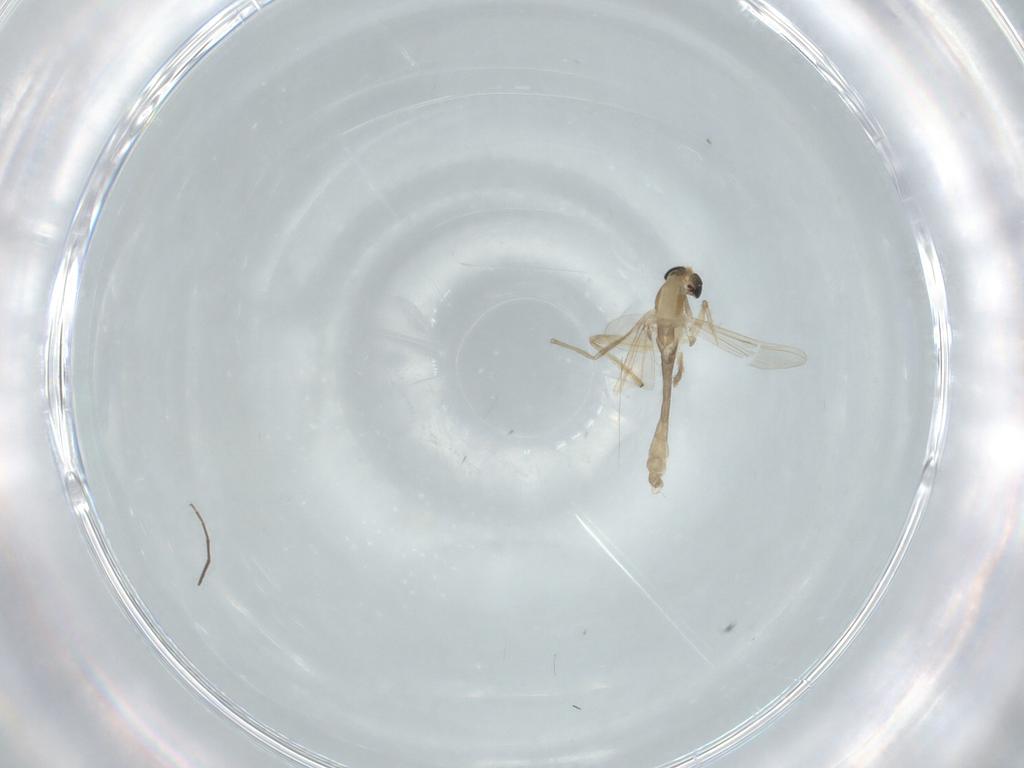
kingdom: Animalia
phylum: Arthropoda
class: Insecta
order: Diptera
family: Chironomidae
